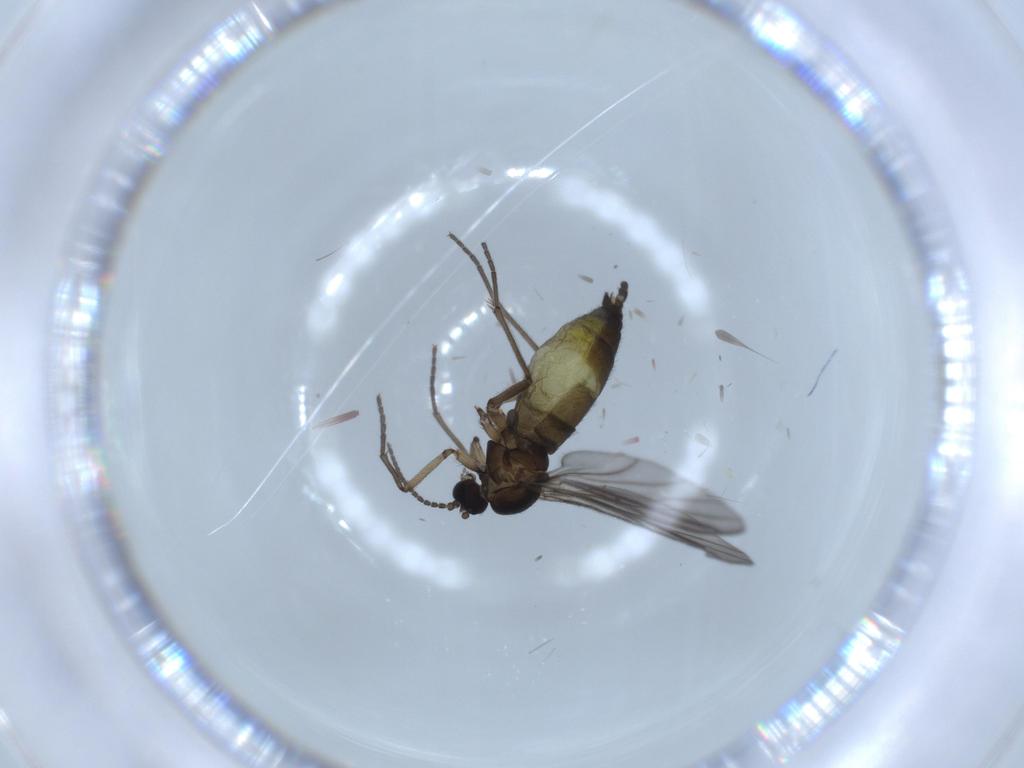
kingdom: Animalia
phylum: Arthropoda
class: Insecta
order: Diptera
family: Sciaridae
